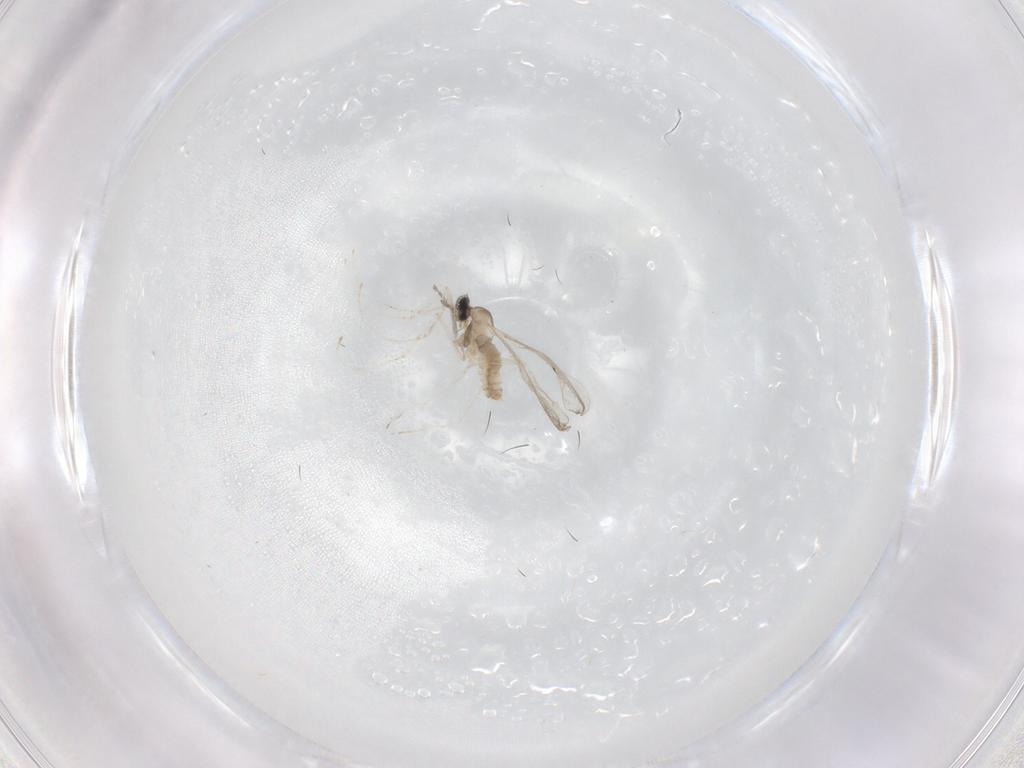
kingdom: Animalia
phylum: Arthropoda
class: Insecta
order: Diptera
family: Cecidomyiidae
